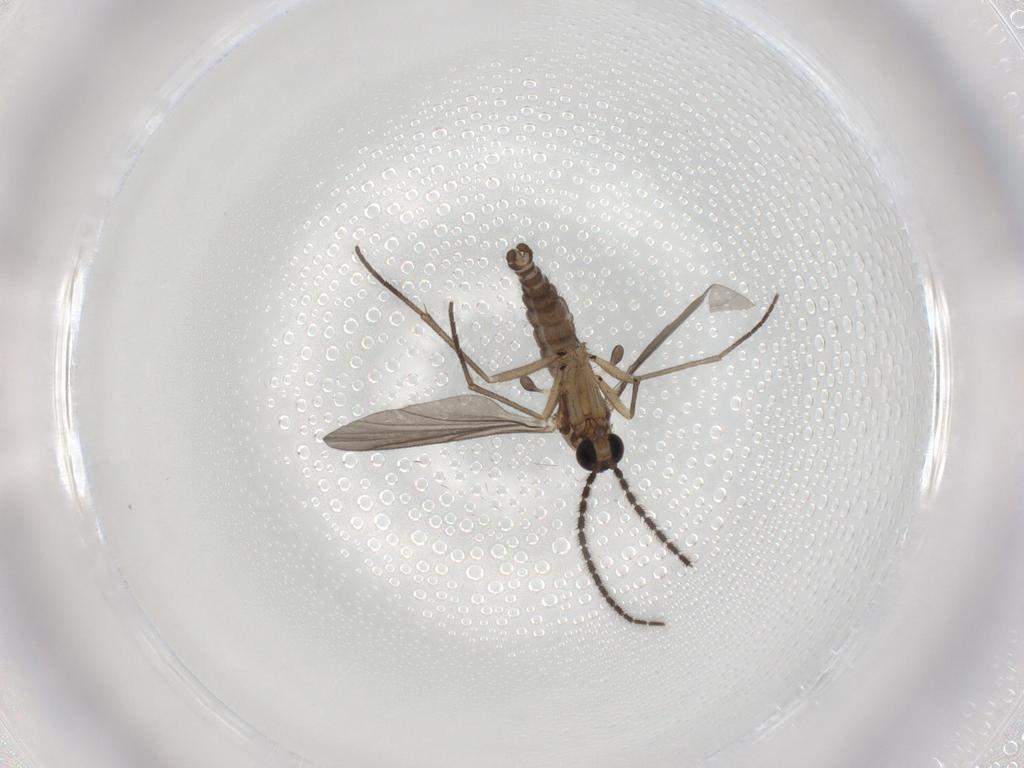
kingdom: Animalia
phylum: Arthropoda
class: Insecta
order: Diptera
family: Sciaridae
